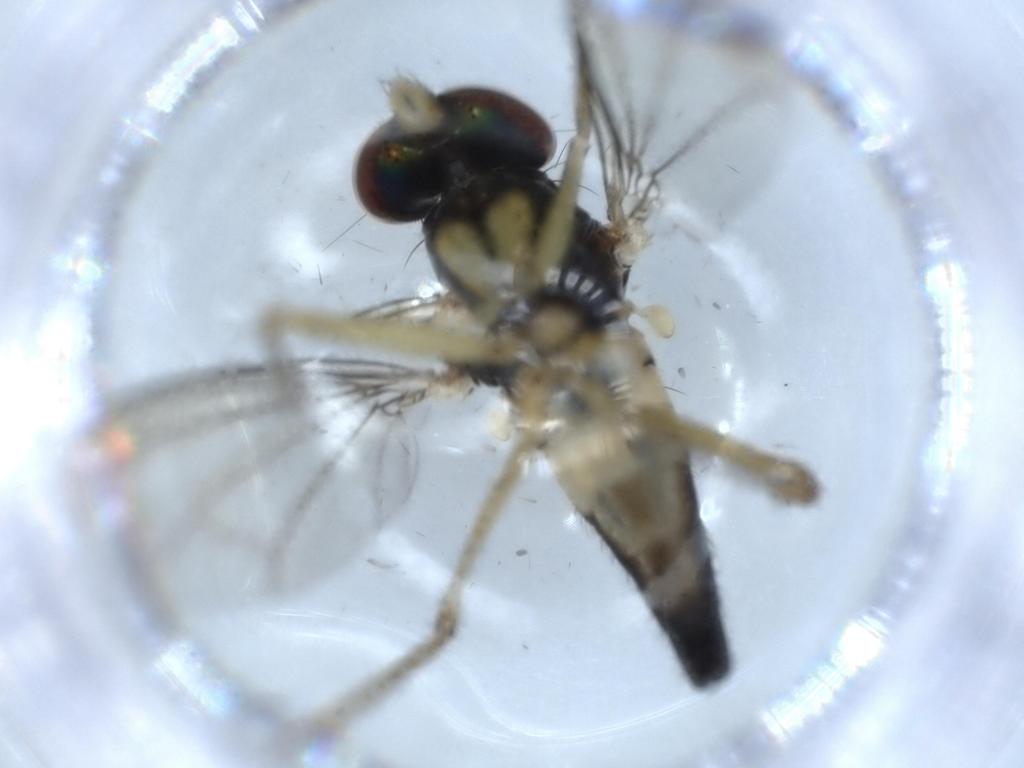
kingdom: Animalia
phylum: Arthropoda
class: Insecta
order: Diptera
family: Dolichopodidae
